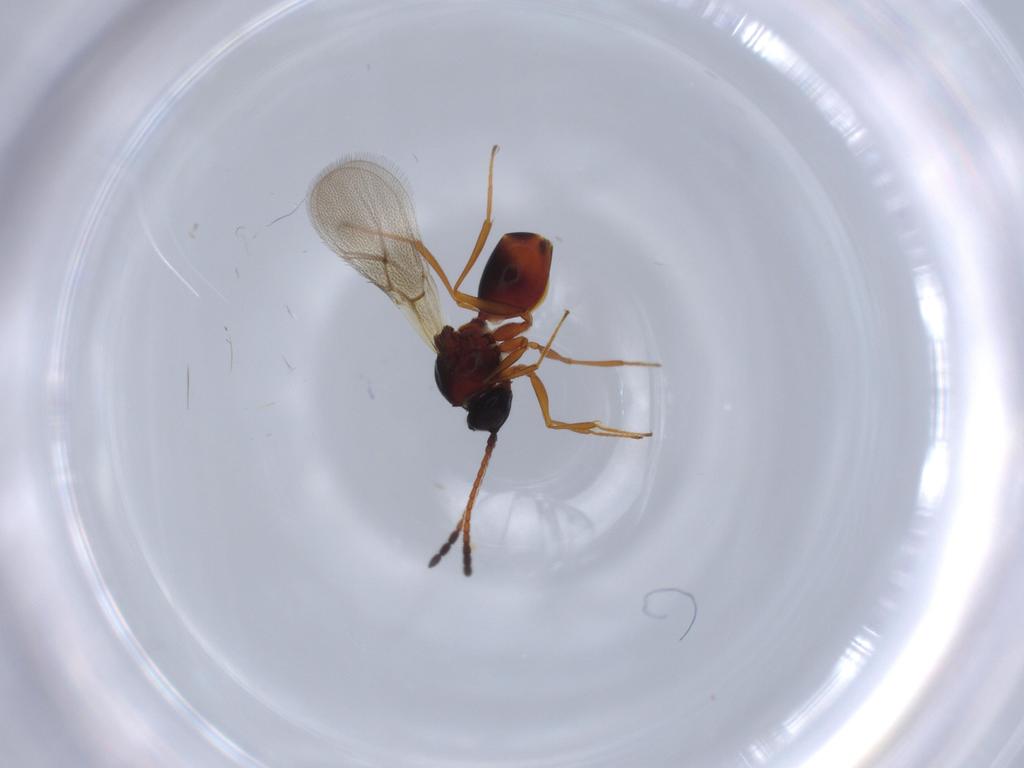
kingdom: Animalia
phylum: Arthropoda
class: Insecta
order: Hymenoptera
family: Figitidae
